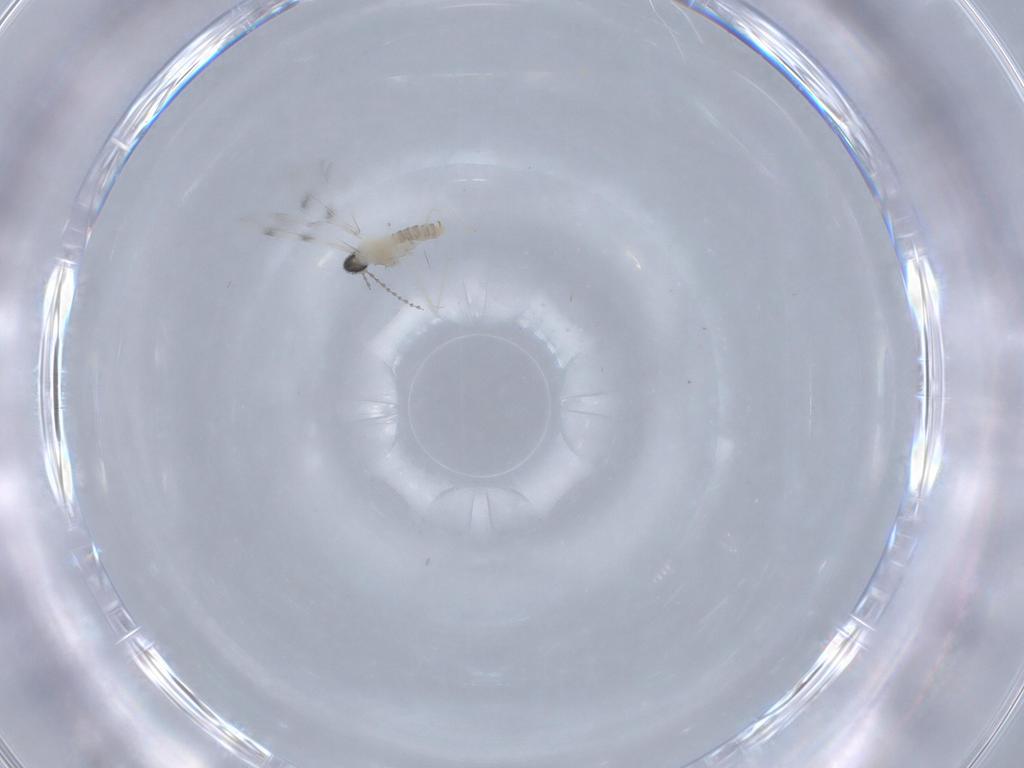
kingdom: Animalia
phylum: Arthropoda
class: Insecta
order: Diptera
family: Cecidomyiidae
